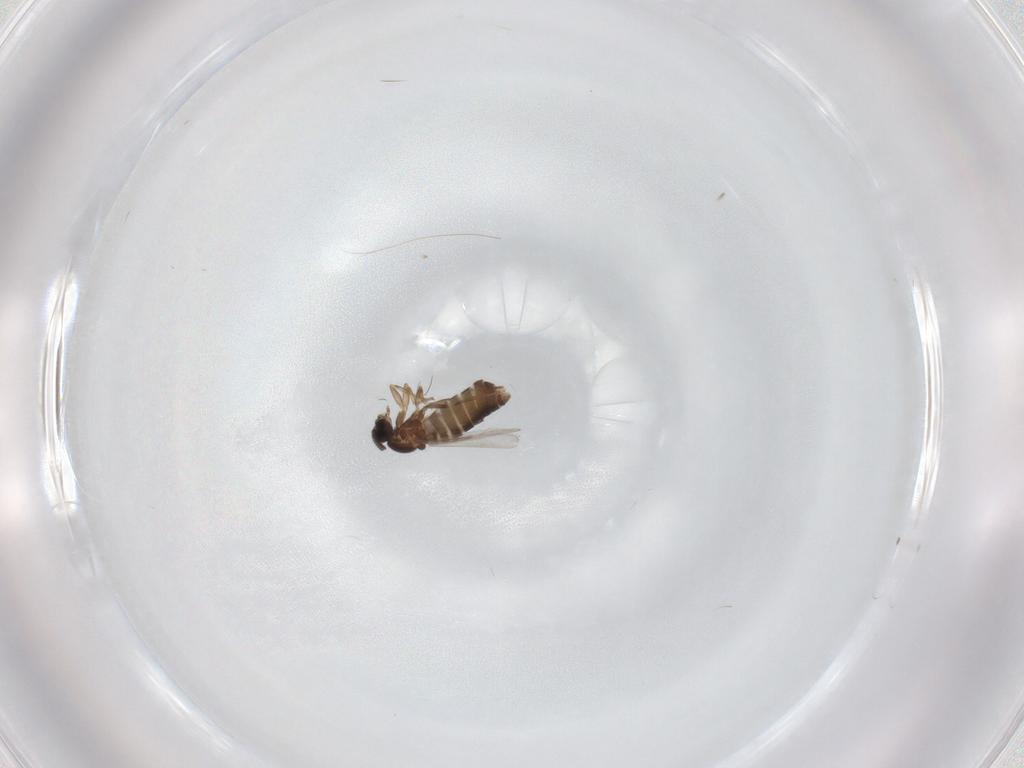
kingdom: Animalia
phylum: Arthropoda
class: Insecta
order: Diptera
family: Scatopsidae
